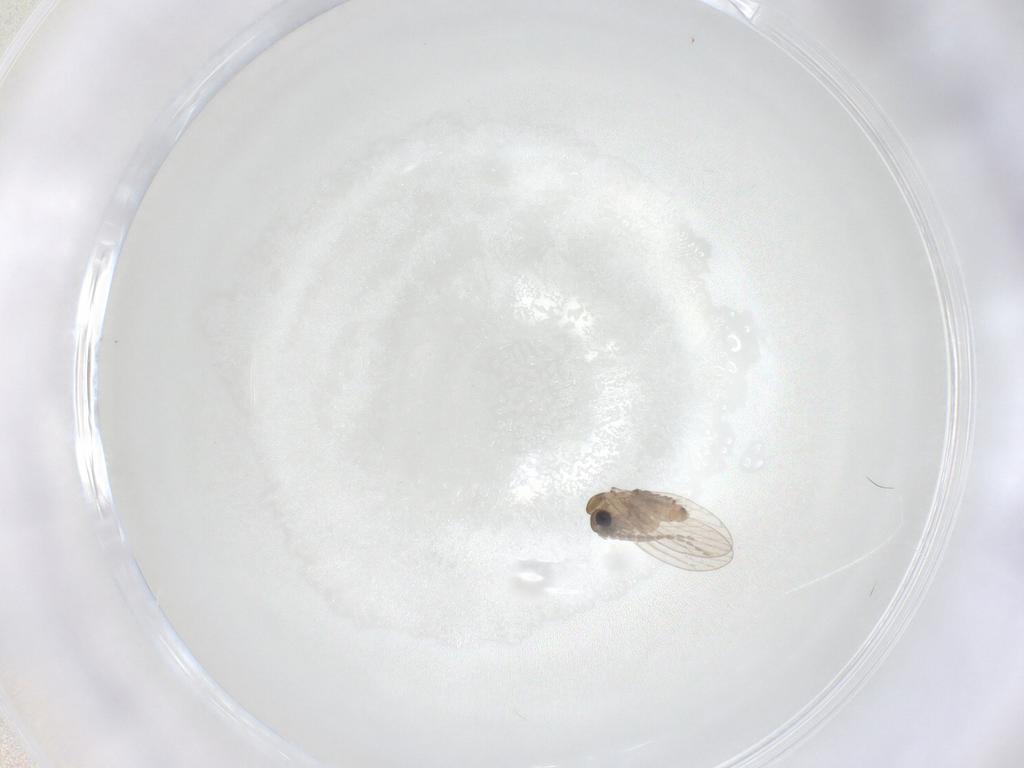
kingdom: Animalia
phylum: Arthropoda
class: Insecta
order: Diptera
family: Psychodidae
